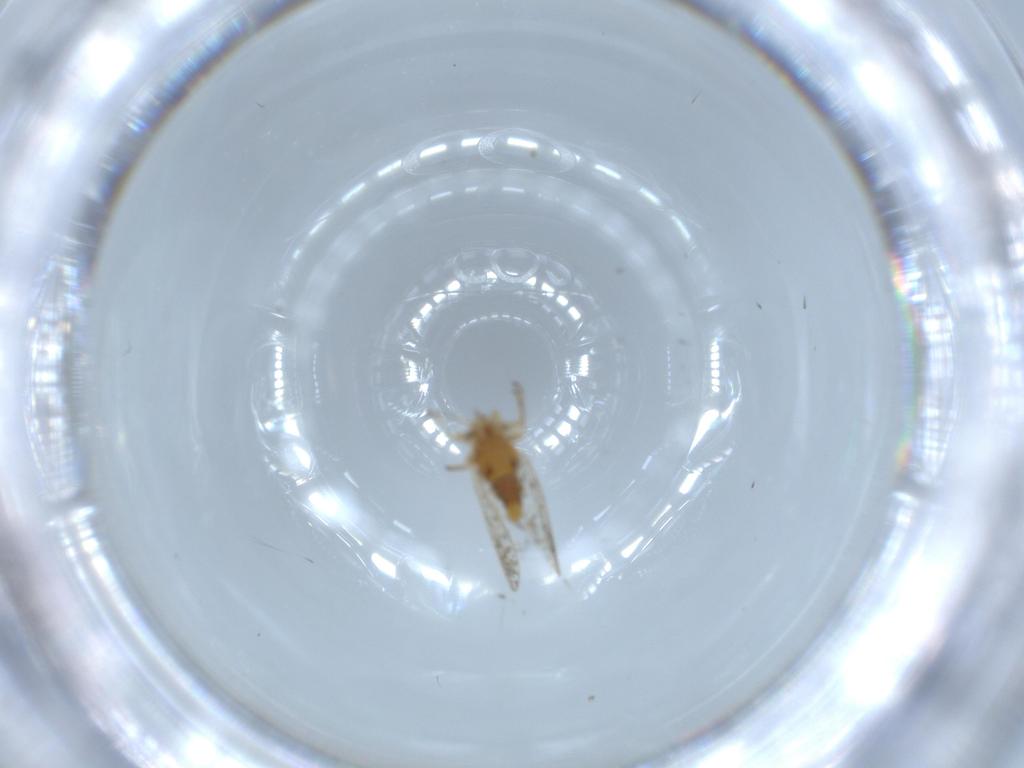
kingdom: Animalia
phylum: Arthropoda
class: Insecta
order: Hemiptera
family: Psyllidae
